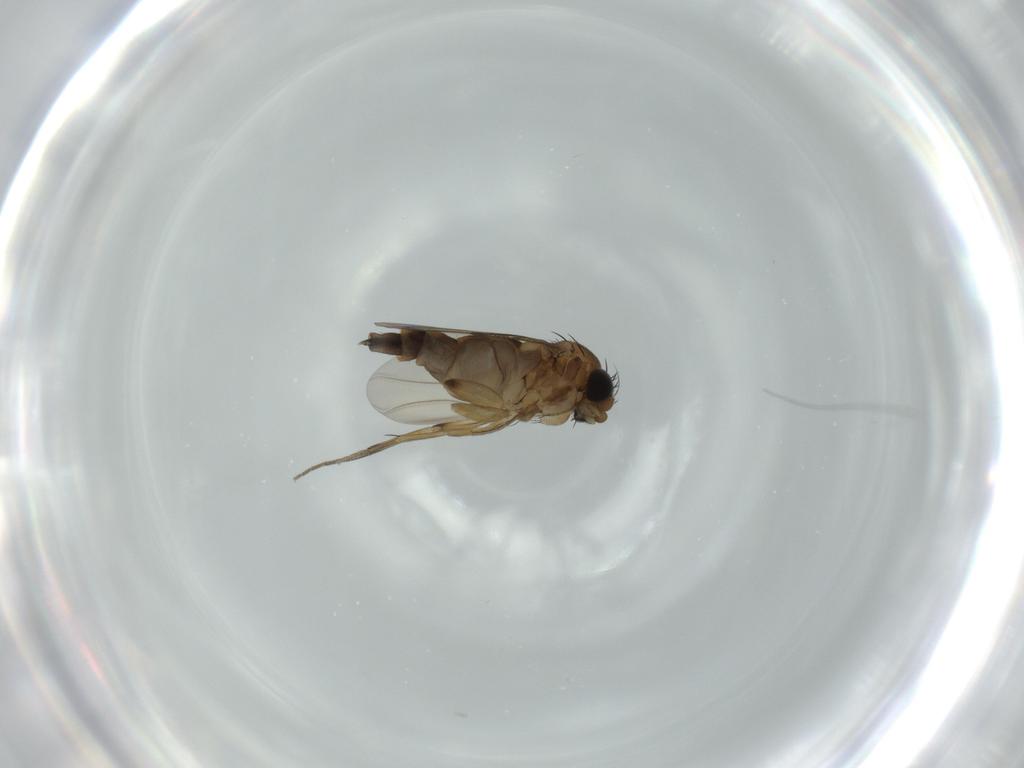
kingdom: Animalia
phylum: Arthropoda
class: Insecta
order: Diptera
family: Phoridae
